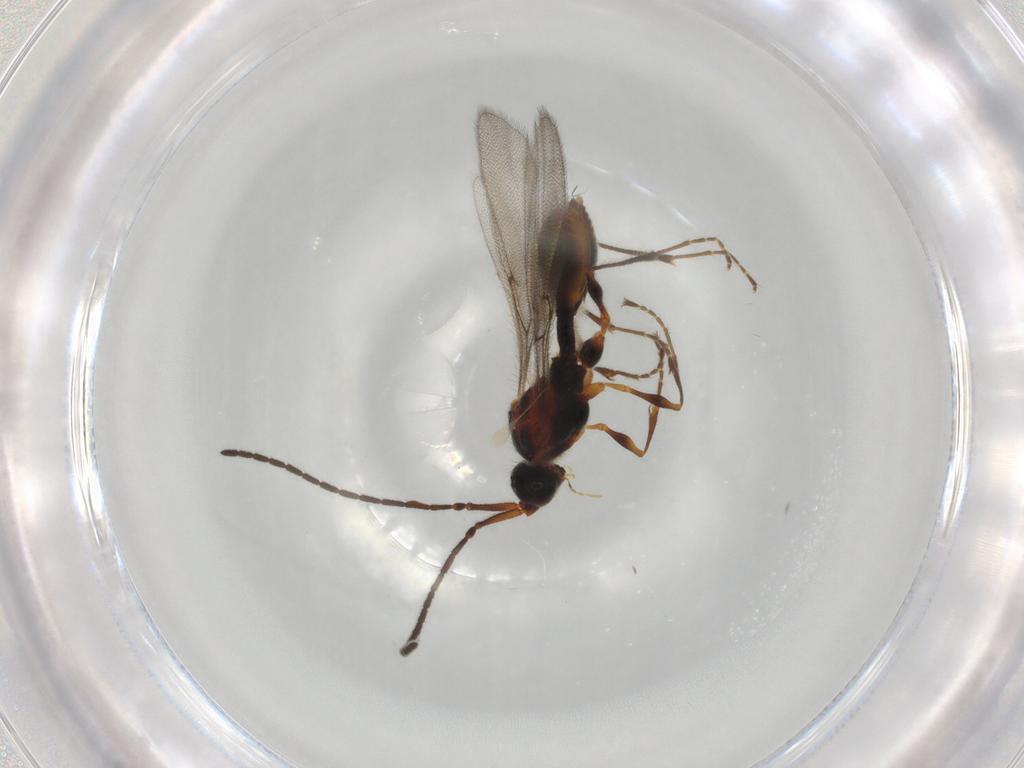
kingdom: Animalia
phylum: Arthropoda
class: Insecta
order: Hymenoptera
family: Diapriidae
